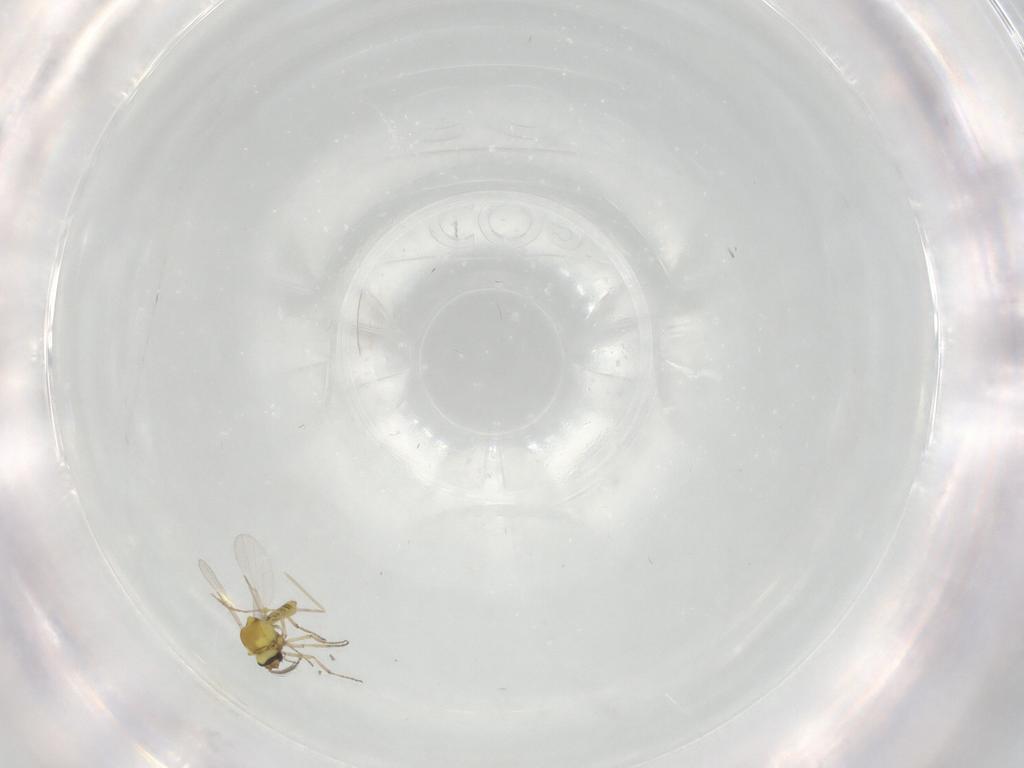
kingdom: Animalia
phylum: Arthropoda
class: Insecta
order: Diptera
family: Ceratopogonidae
